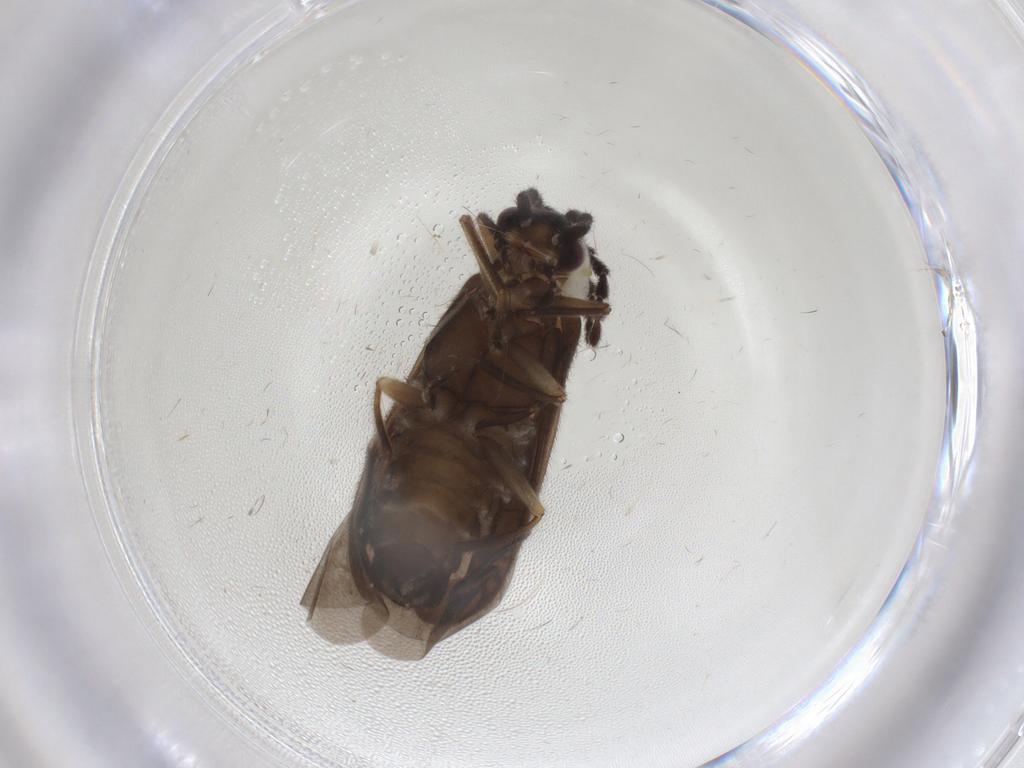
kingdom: Animalia
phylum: Arthropoda
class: Insecta
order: Coleoptera
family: Cantharidae
